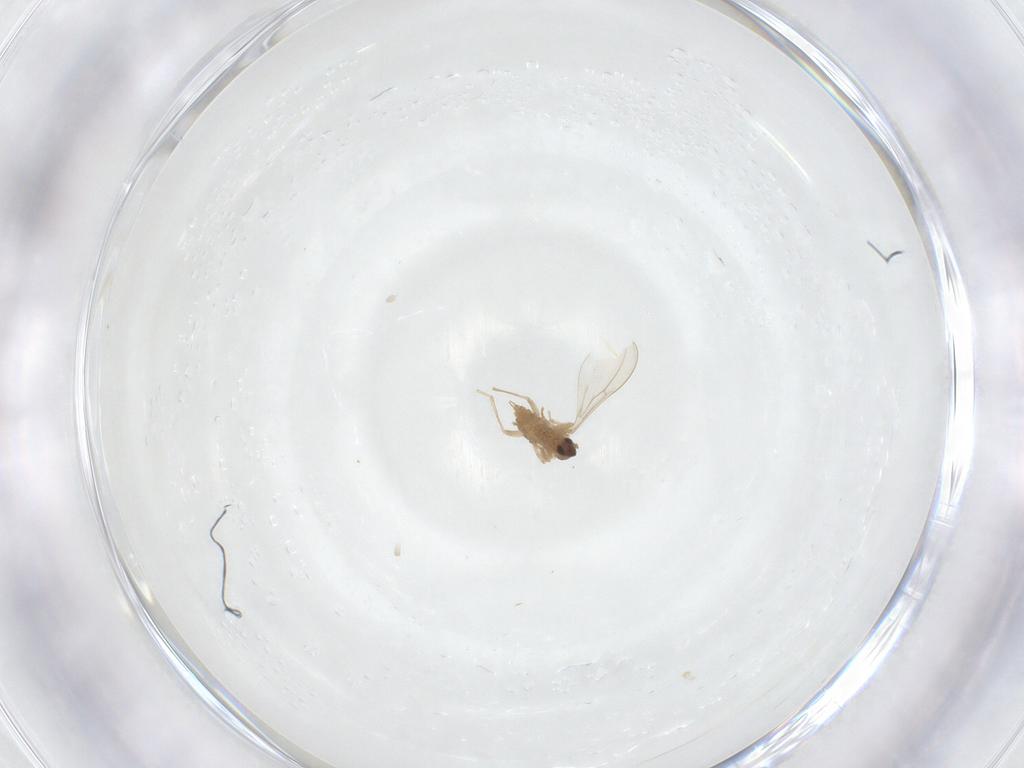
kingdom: Animalia
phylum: Arthropoda
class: Insecta
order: Diptera
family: Cecidomyiidae
